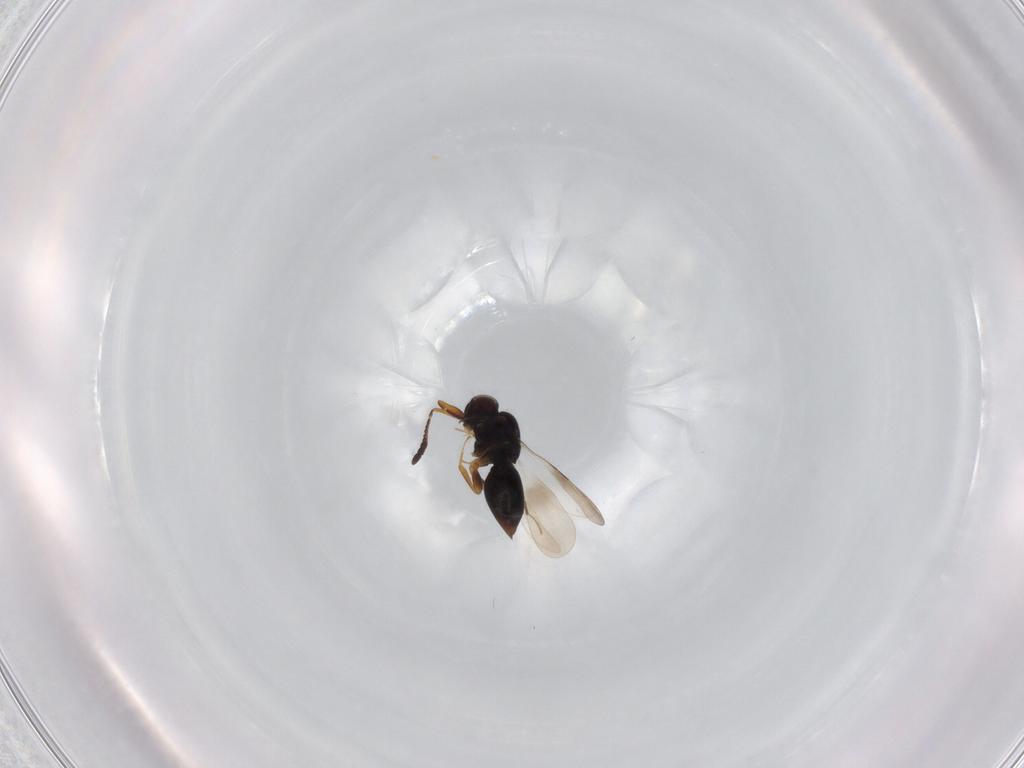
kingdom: Animalia
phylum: Arthropoda
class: Insecta
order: Hymenoptera
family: Ceraphronidae
